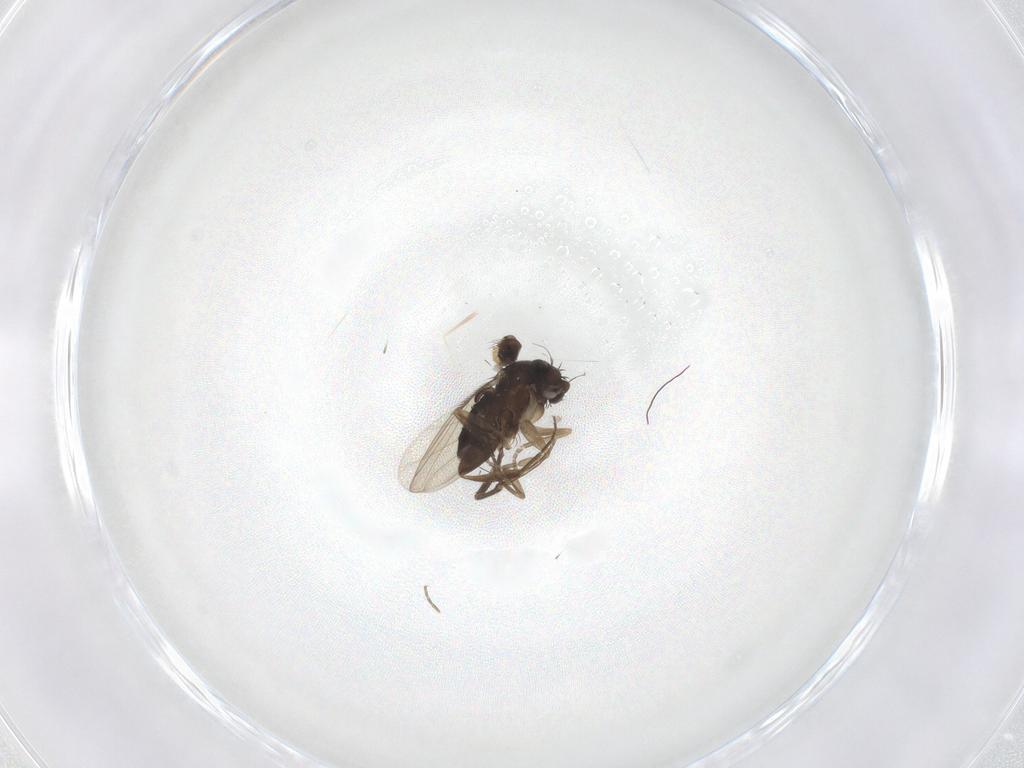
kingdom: Animalia
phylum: Arthropoda
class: Insecta
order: Diptera
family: Phoridae
